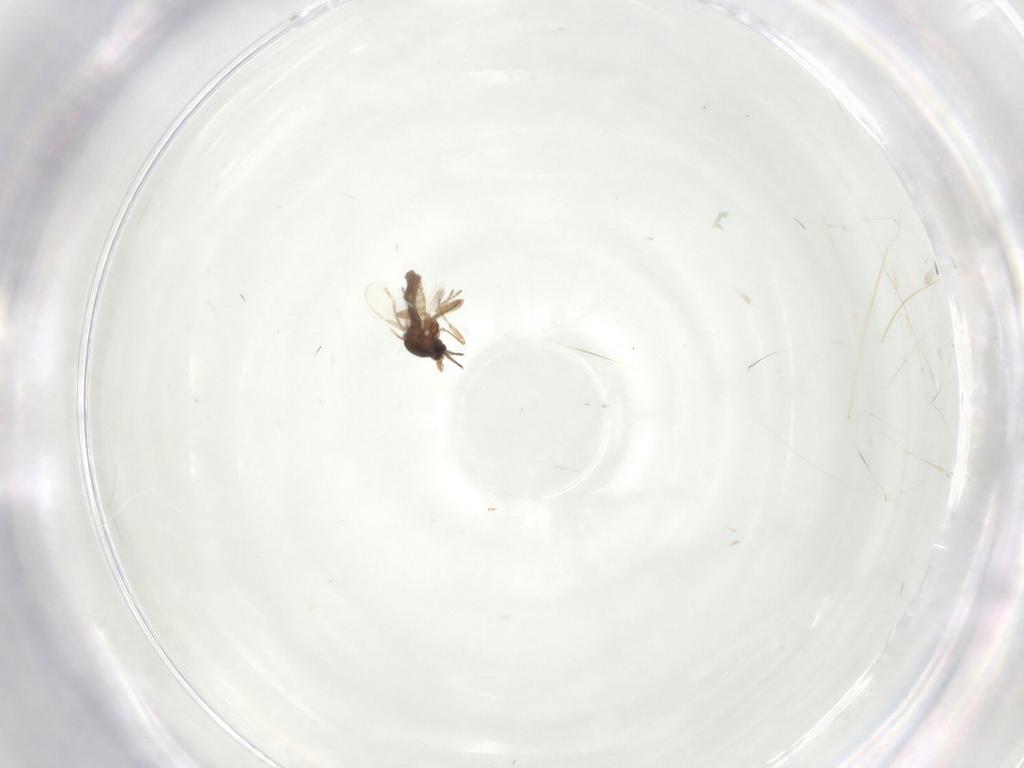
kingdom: Animalia
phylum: Arthropoda
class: Insecta
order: Diptera
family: Ceratopogonidae
